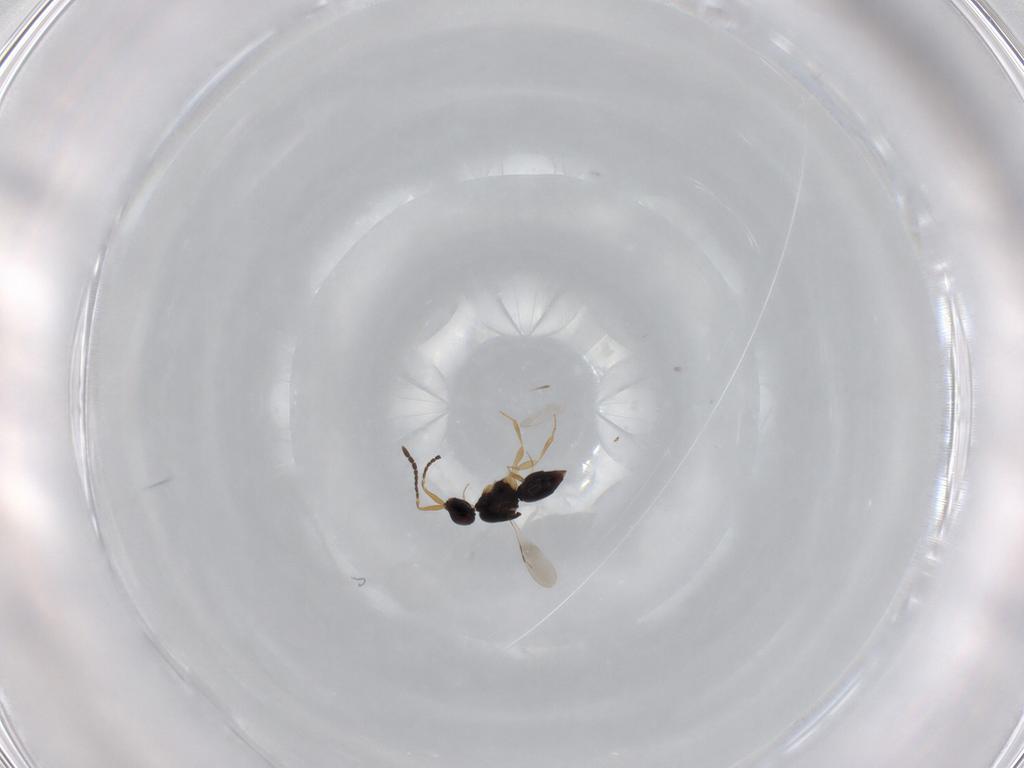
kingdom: Animalia
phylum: Arthropoda
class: Insecta
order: Hymenoptera
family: Ceraphronidae
